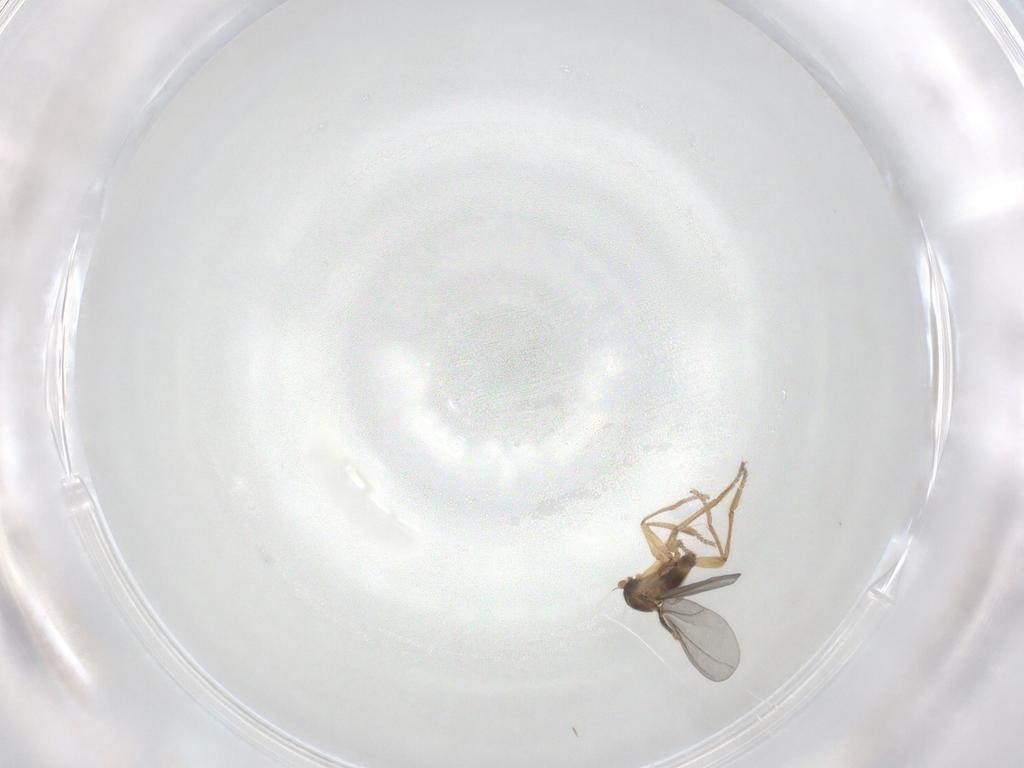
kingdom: Animalia
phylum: Arthropoda
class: Insecta
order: Diptera
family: Phoridae
